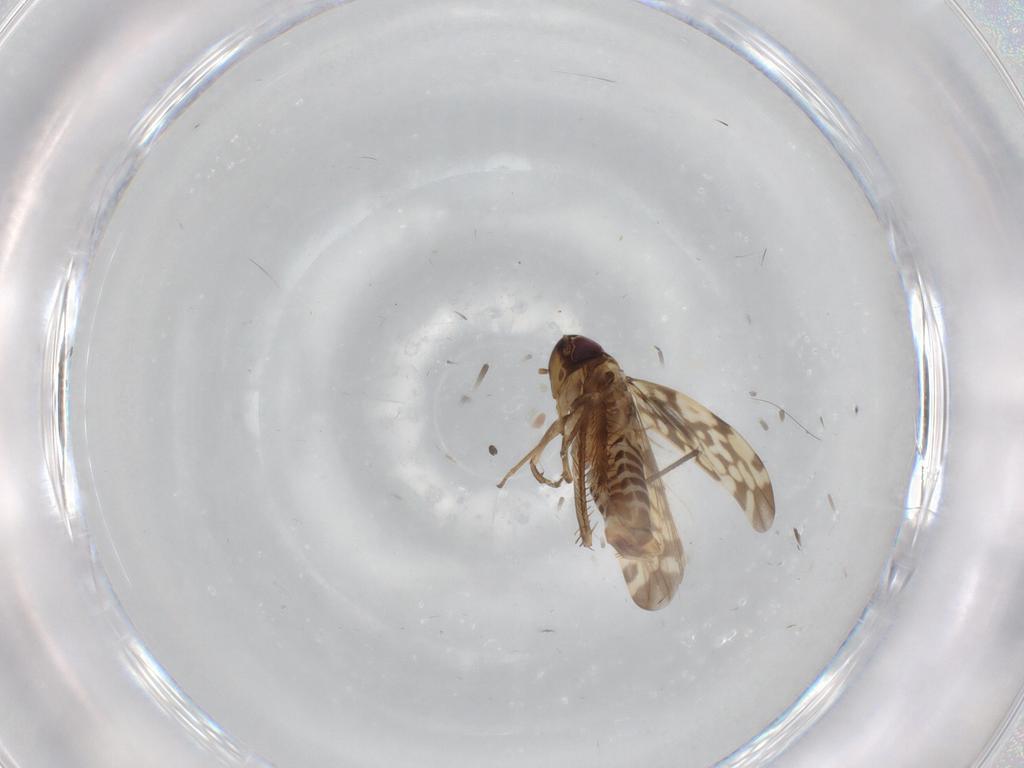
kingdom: Animalia
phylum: Arthropoda
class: Insecta
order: Hemiptera
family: Cicadellidae
